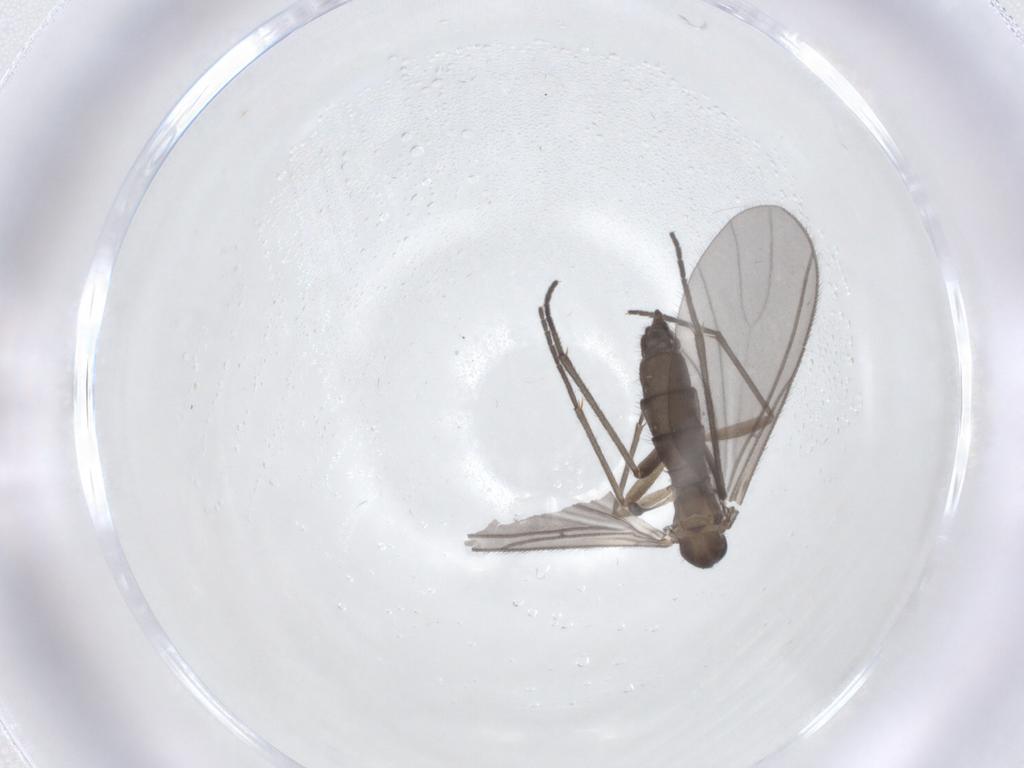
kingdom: Animalia
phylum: Arthropoda
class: Insecta
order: Diptera
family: Sciaridae
